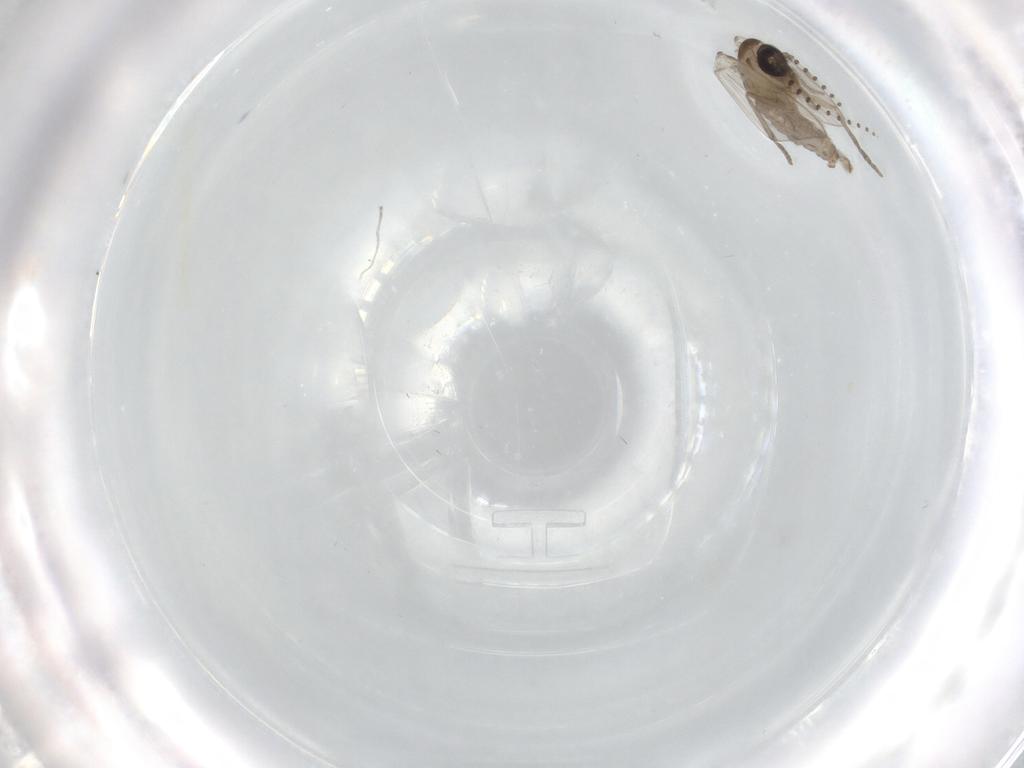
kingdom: Animalia
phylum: Arthropoda
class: Insecta
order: Diptera
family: Psychodidae
